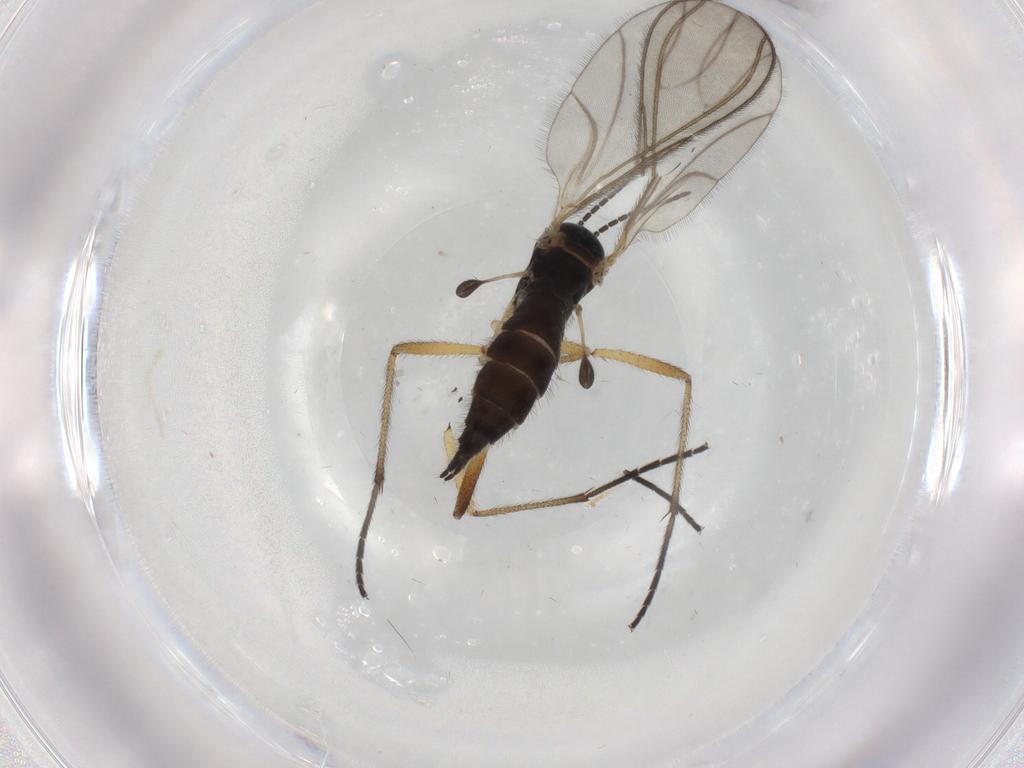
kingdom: Animalia
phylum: Arthropoda
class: Insecta
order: Diptera
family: Sciaridae
